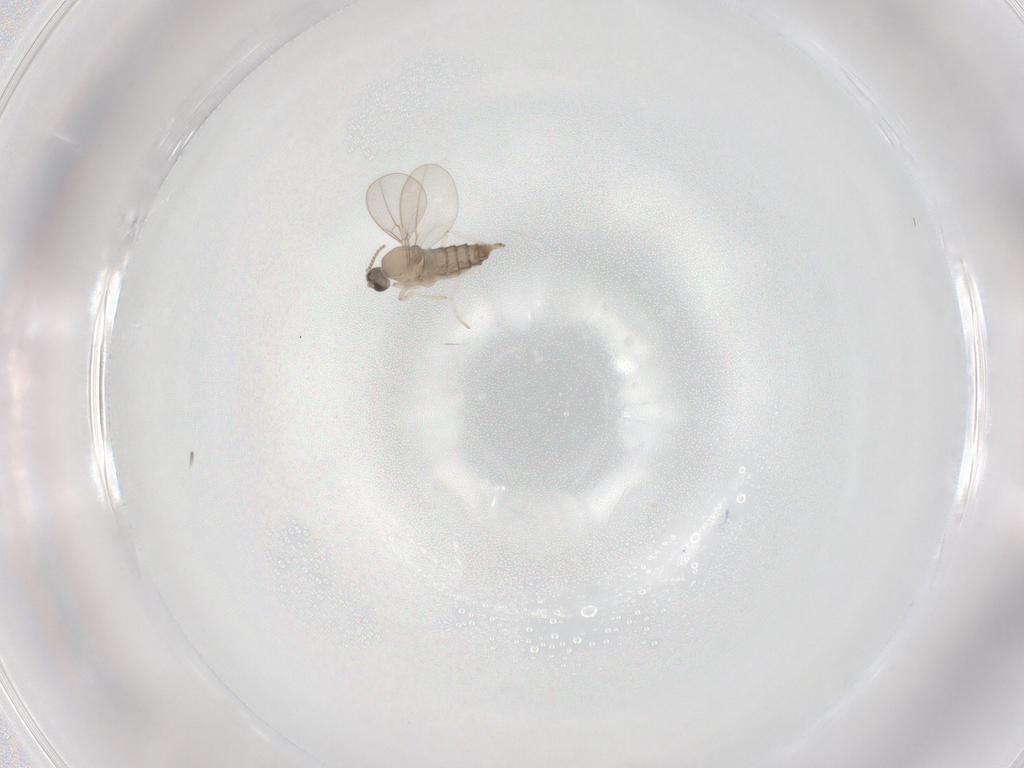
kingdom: Animalia
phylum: Arthropoda
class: Insecta
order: Diptera
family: Cecidomyiidae
